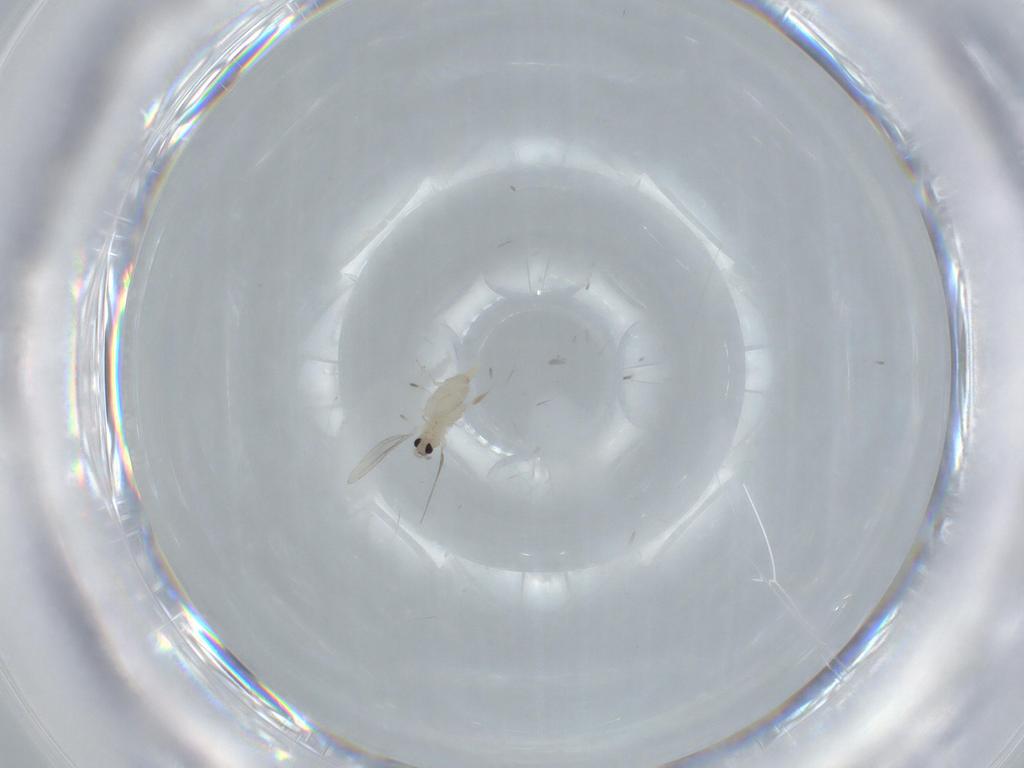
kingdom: Animalia
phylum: Arthropoda
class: Insecta
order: Diptera
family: Cecidomyiidae
